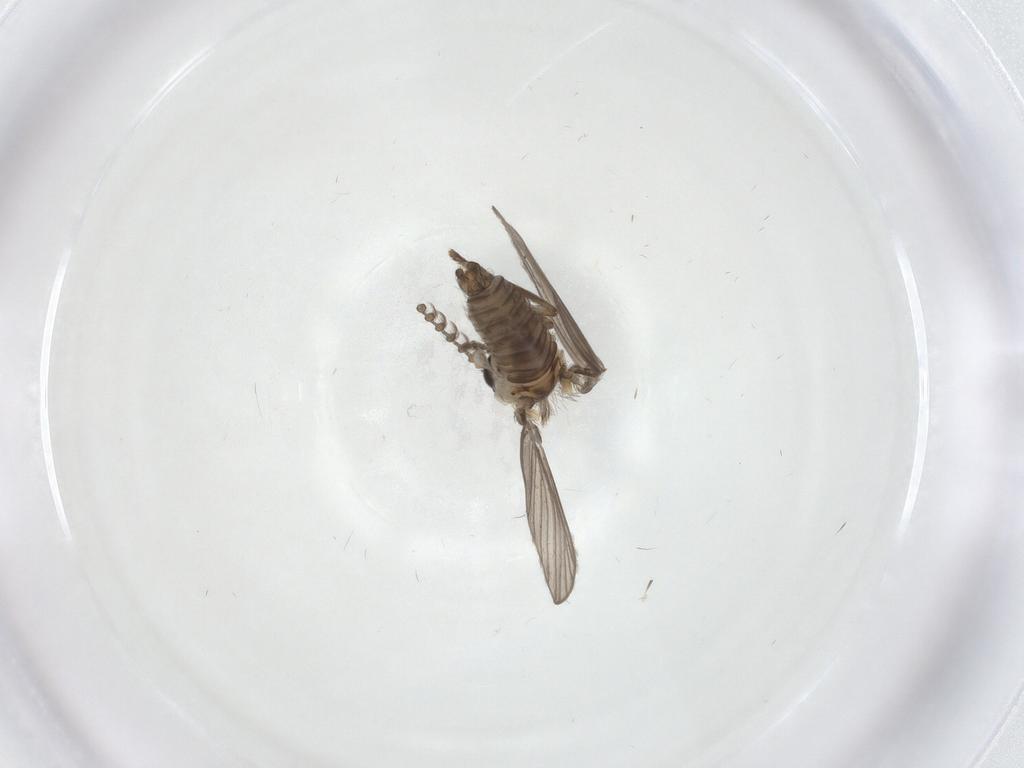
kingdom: Animalia
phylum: Arthropoda
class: Insecta
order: Diptera
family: Psychodidae
